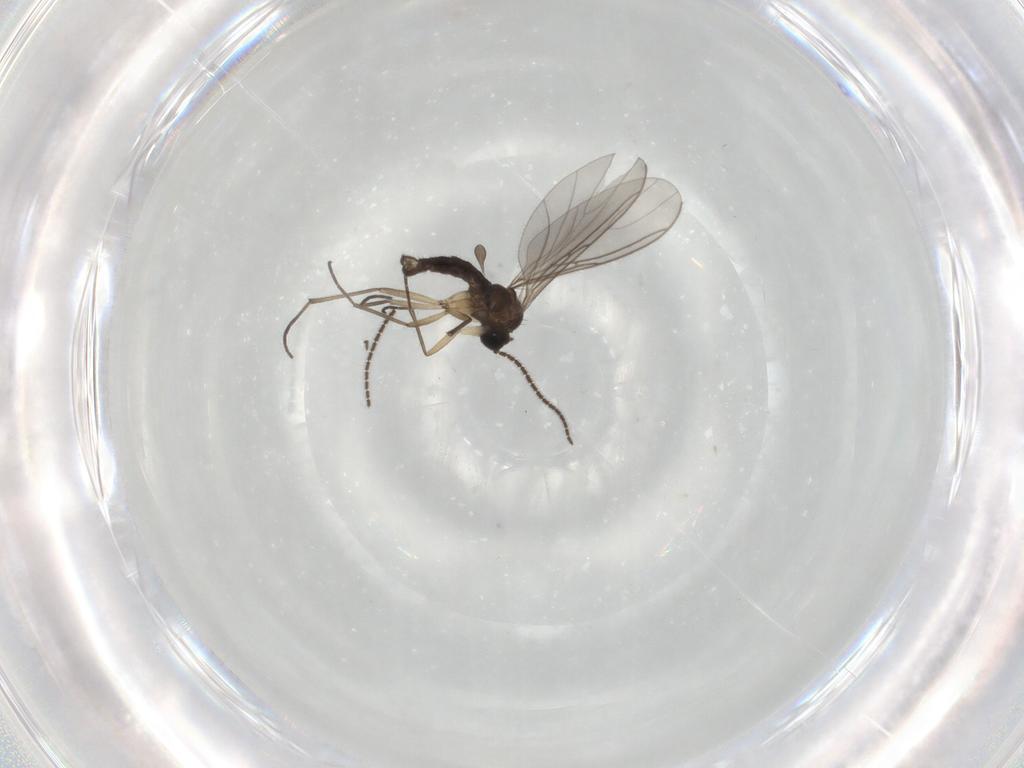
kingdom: Animalia
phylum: Arthropoda
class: Insecta
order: Diptera
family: Sciaridae
